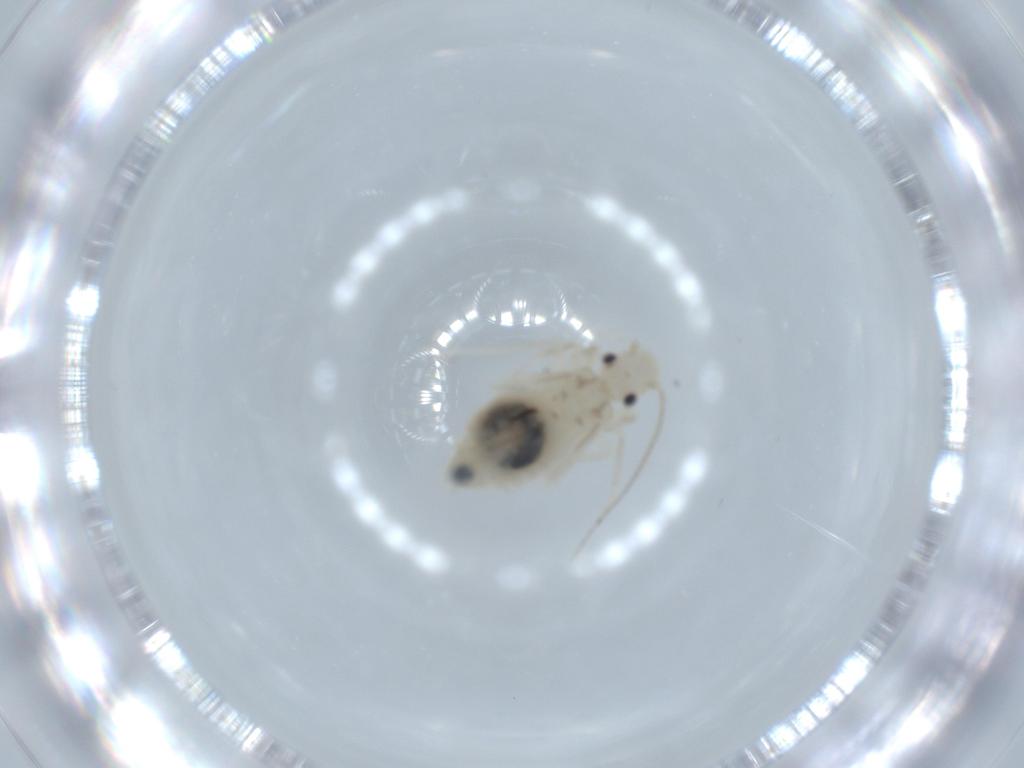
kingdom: Animalia
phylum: Arthropoda
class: Insecta
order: Psocodea
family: Caeciliusidae
